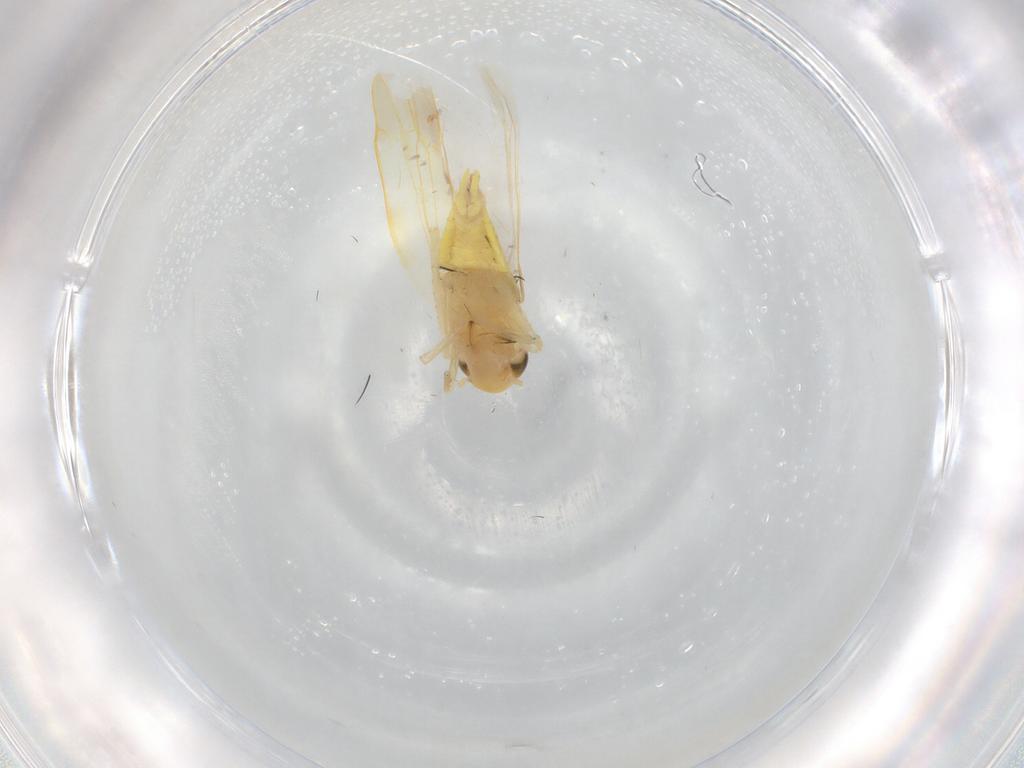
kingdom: Animalia
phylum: Arthropoda
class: Insecta
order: Hemiptera
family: Cicadellidae
